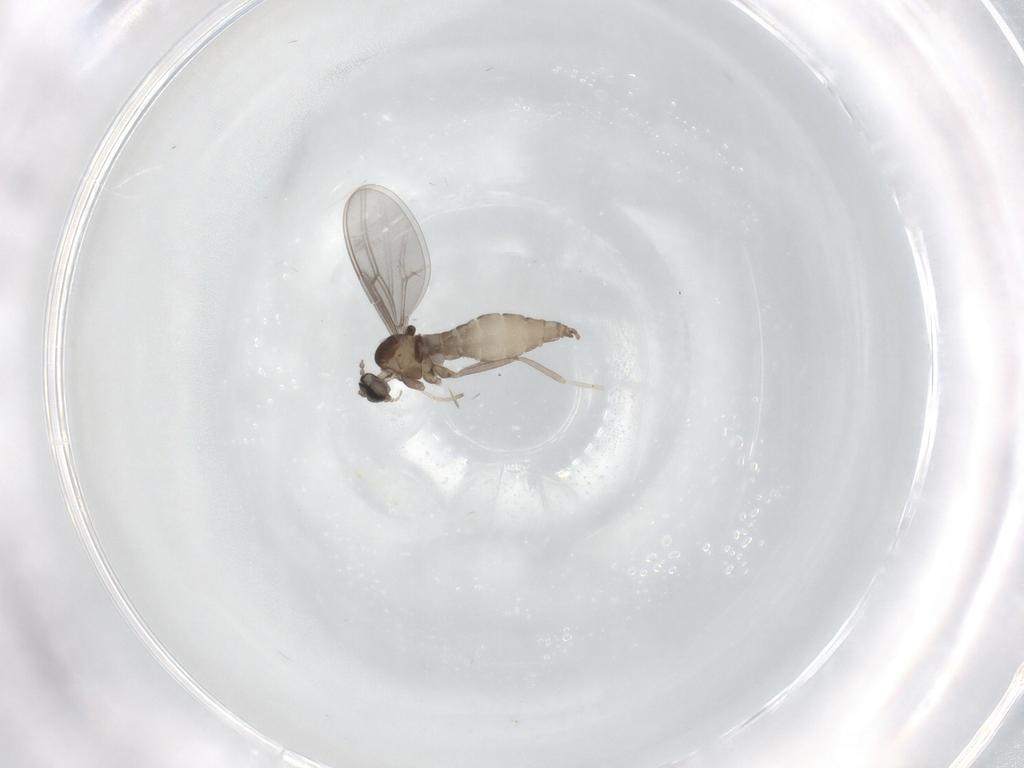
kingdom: Animalia
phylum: Arthropoda
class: Insecta
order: Diptera
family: Cecidomyiidae
